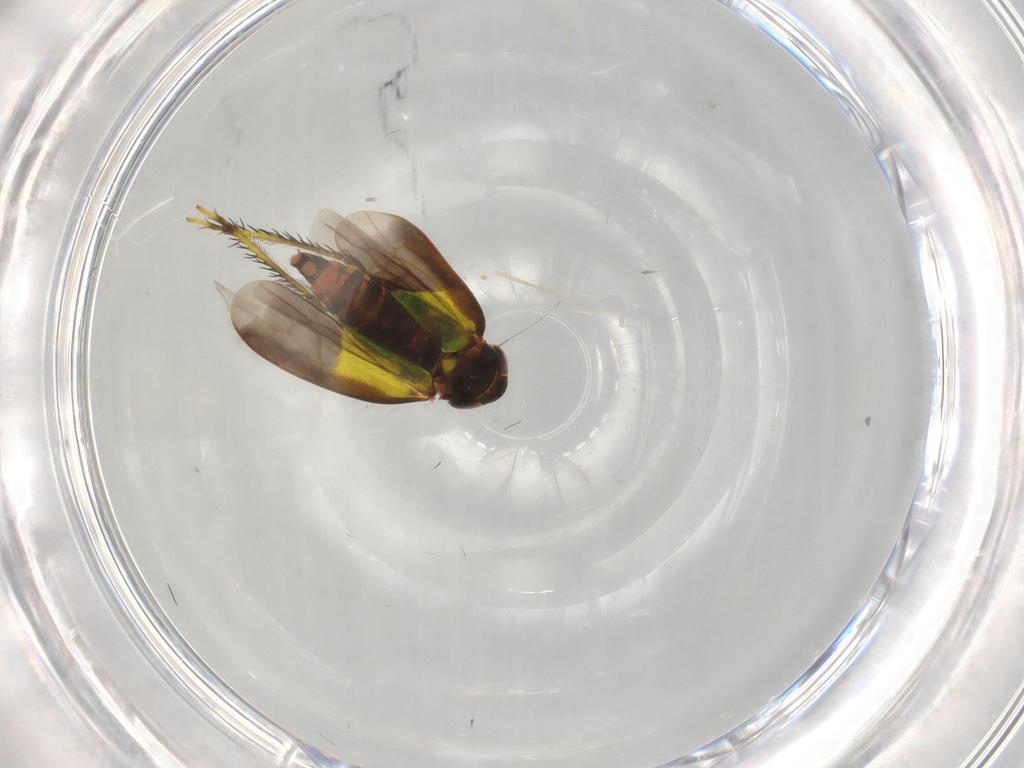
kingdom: Animalia
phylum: Arthropoda
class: Insecta
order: Hemiptera
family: Cicadellidae
